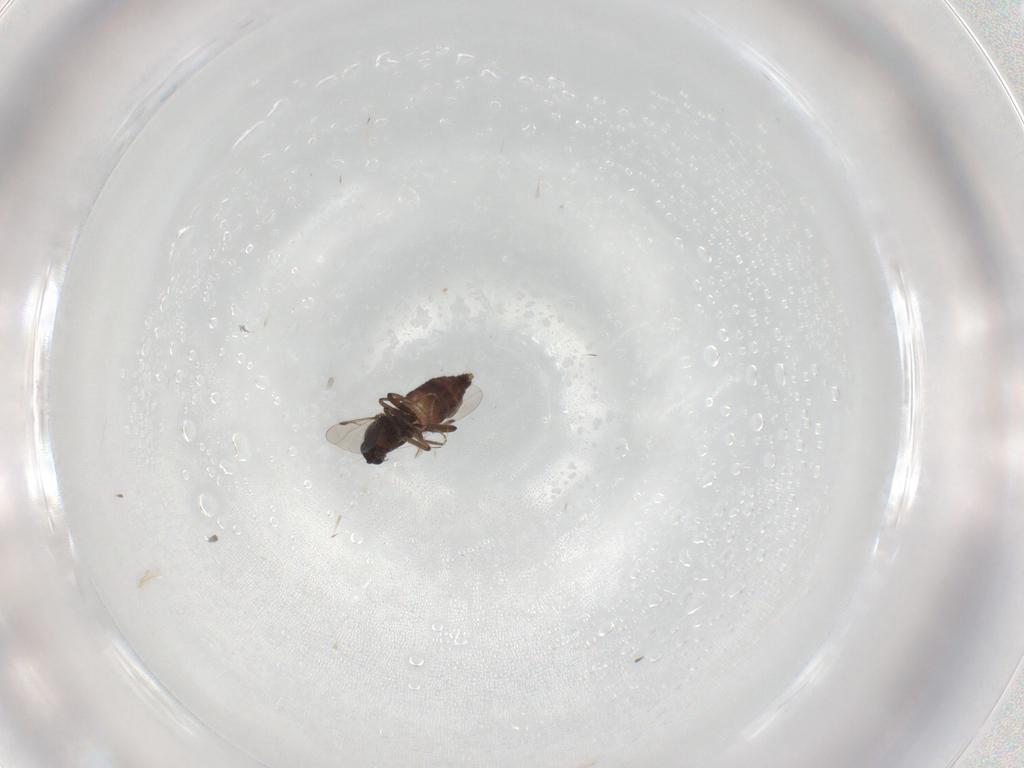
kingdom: Animalia
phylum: Arthropoda
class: Insecta
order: Diptera
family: Ceratopogonidae
